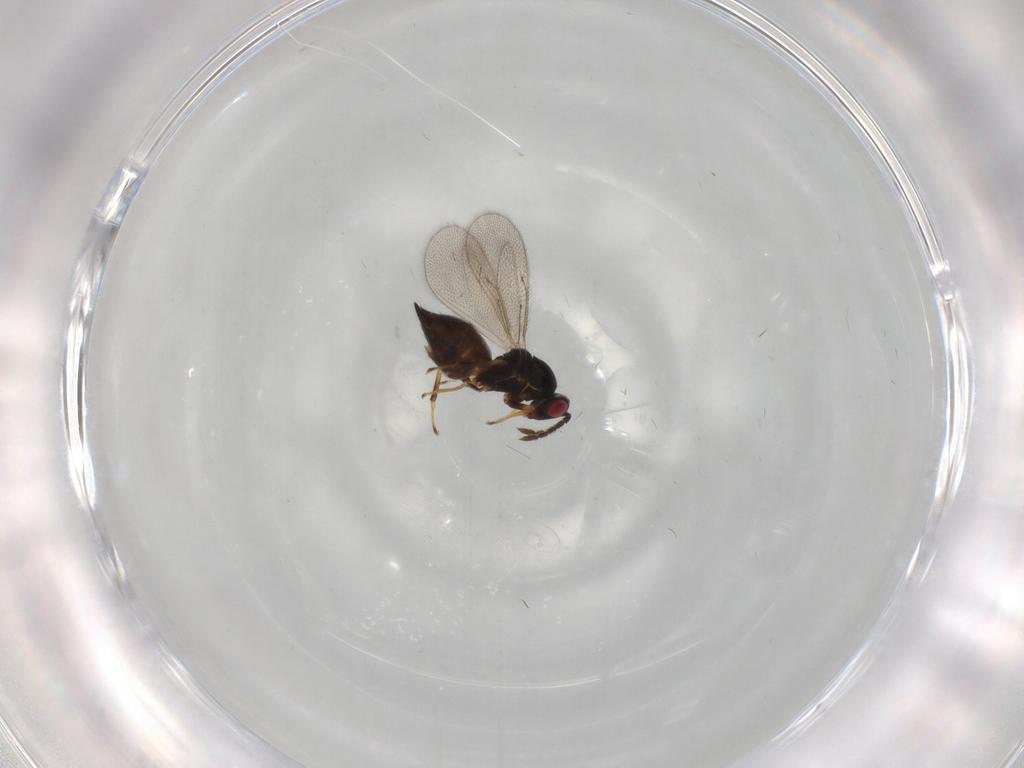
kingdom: Animalia
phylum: Arthropoda
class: Insecta
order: Hymenoptera
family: Eulophidae
